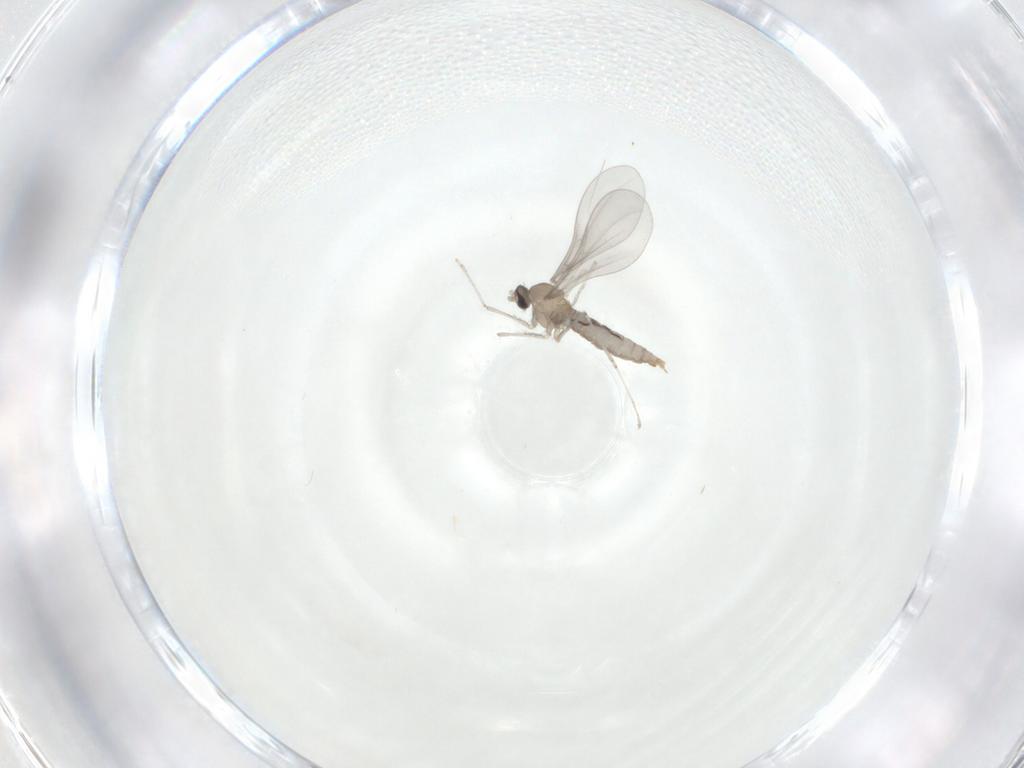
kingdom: Animalia
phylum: Arthropoda
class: Insecta
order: Diptera
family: Cecidomyiidae
